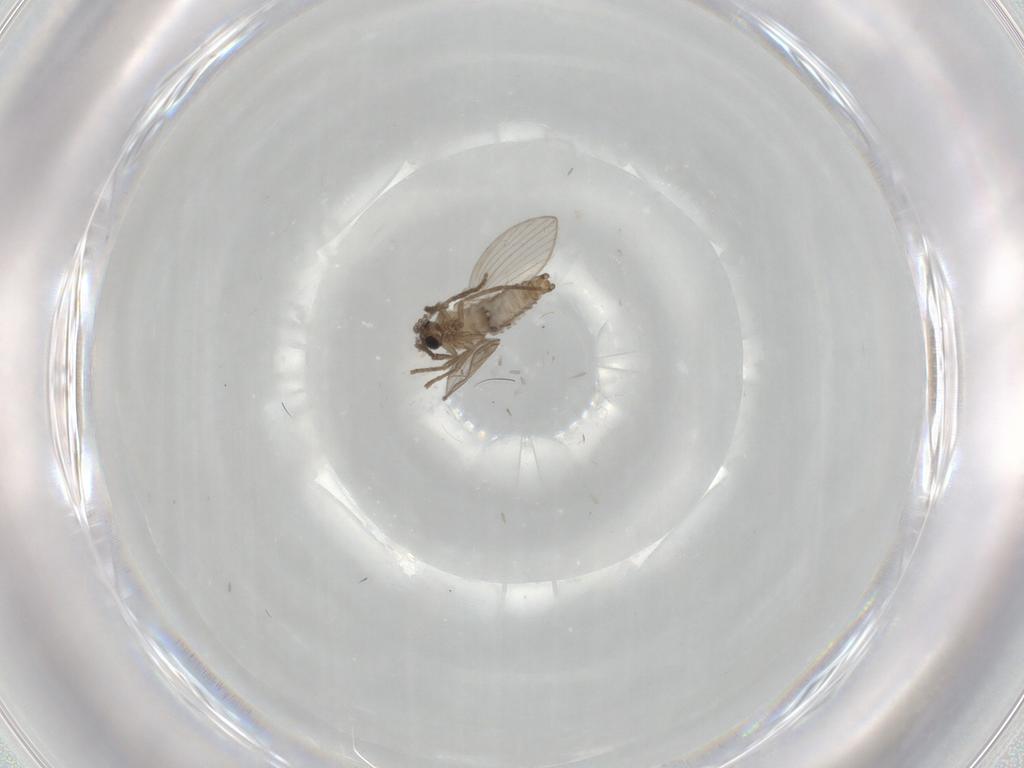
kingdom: Animalia
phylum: Arthropoda
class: Insecta
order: Diptera
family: Psychodidae
